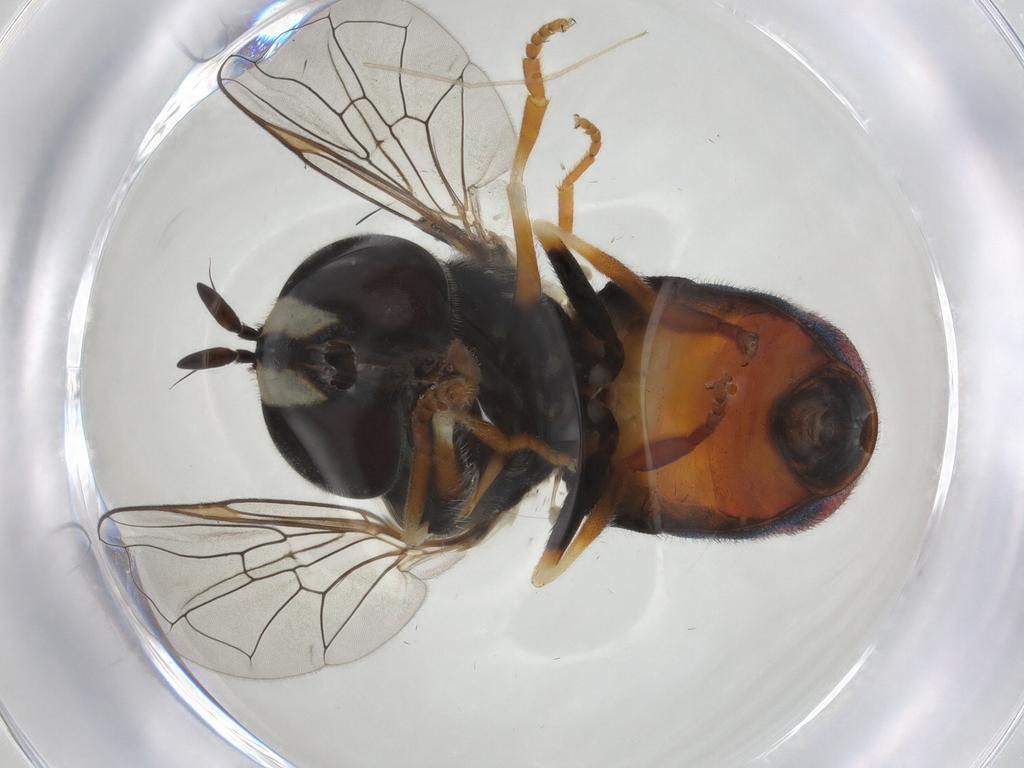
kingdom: Animalia
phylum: Arthropoda
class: Insecta
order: Diptera
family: Syrphidae
